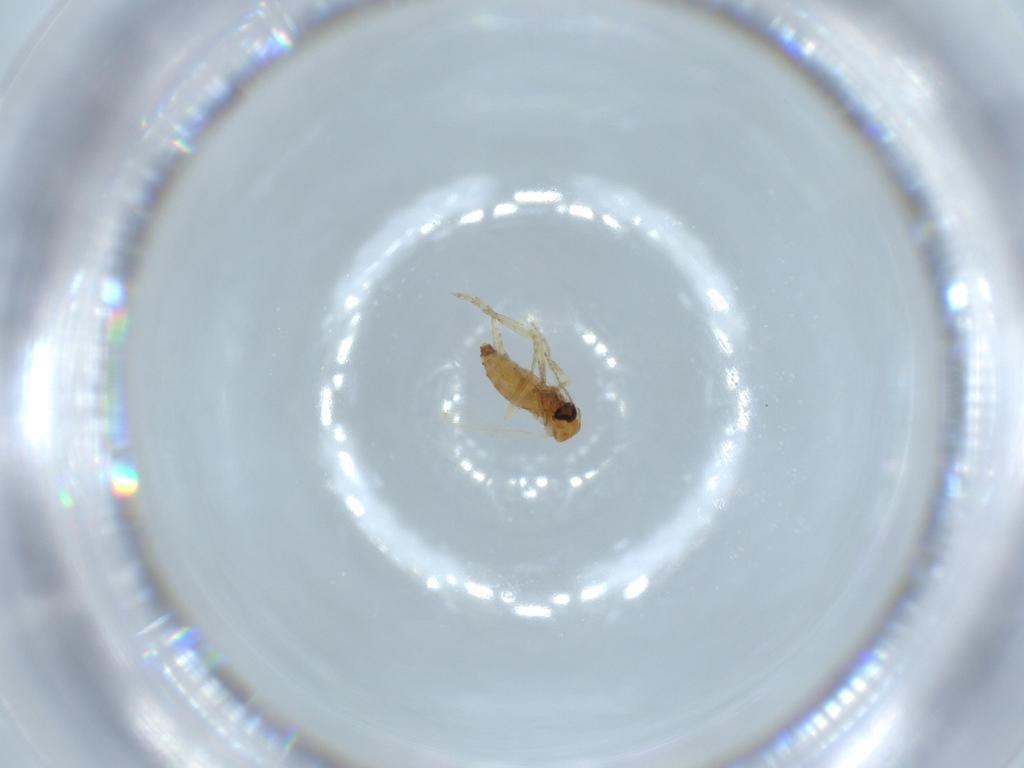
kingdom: Animalia
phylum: Arthropoda
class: Insecta
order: Diptera
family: Ceratopogonidae
